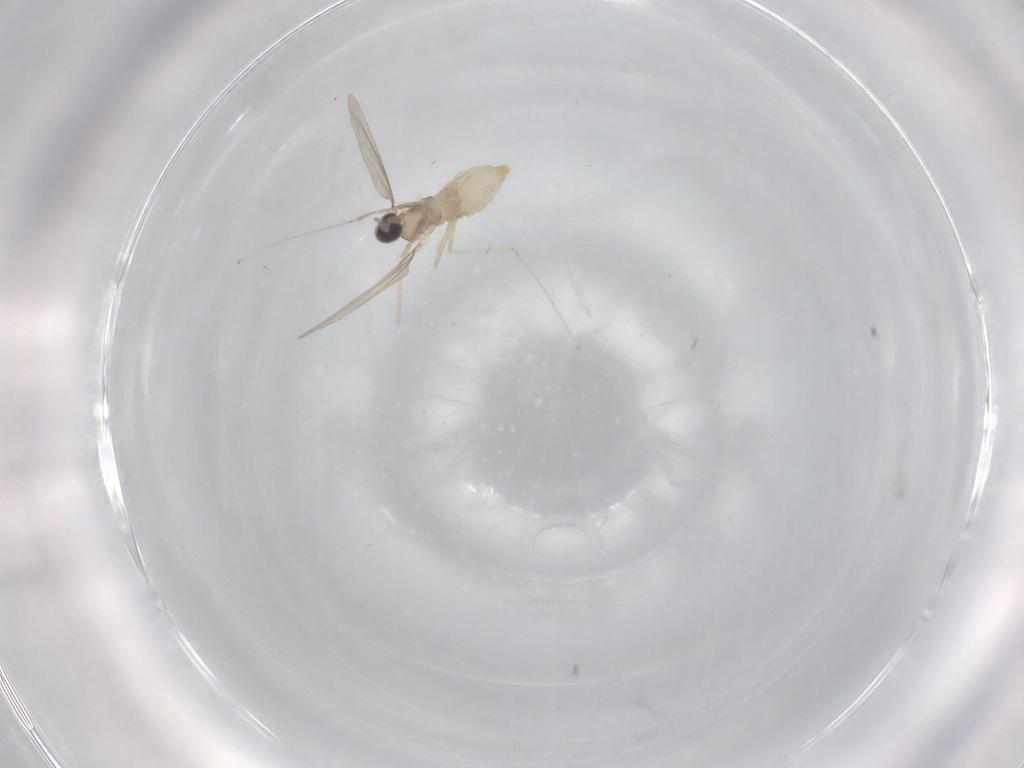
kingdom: Animalia
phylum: Arthropoda
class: Insecta
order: Diptera
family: Cecidomyiidae
